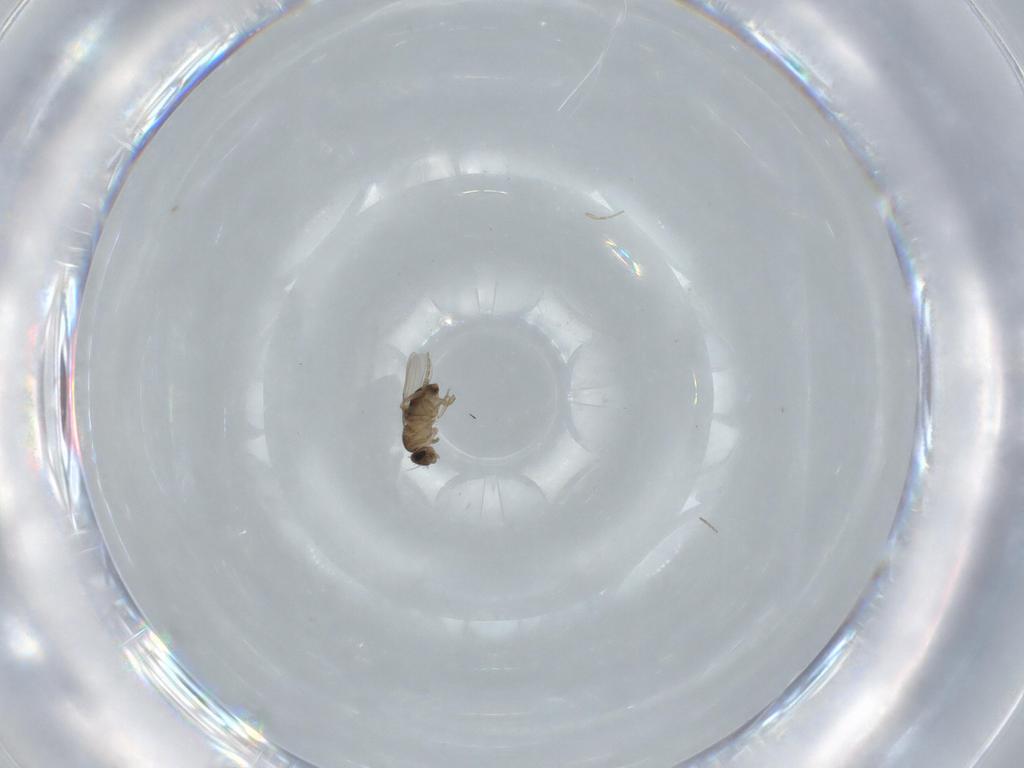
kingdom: Animalia
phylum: Arthropoda
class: Insecta
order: Diptera
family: Phoridae
